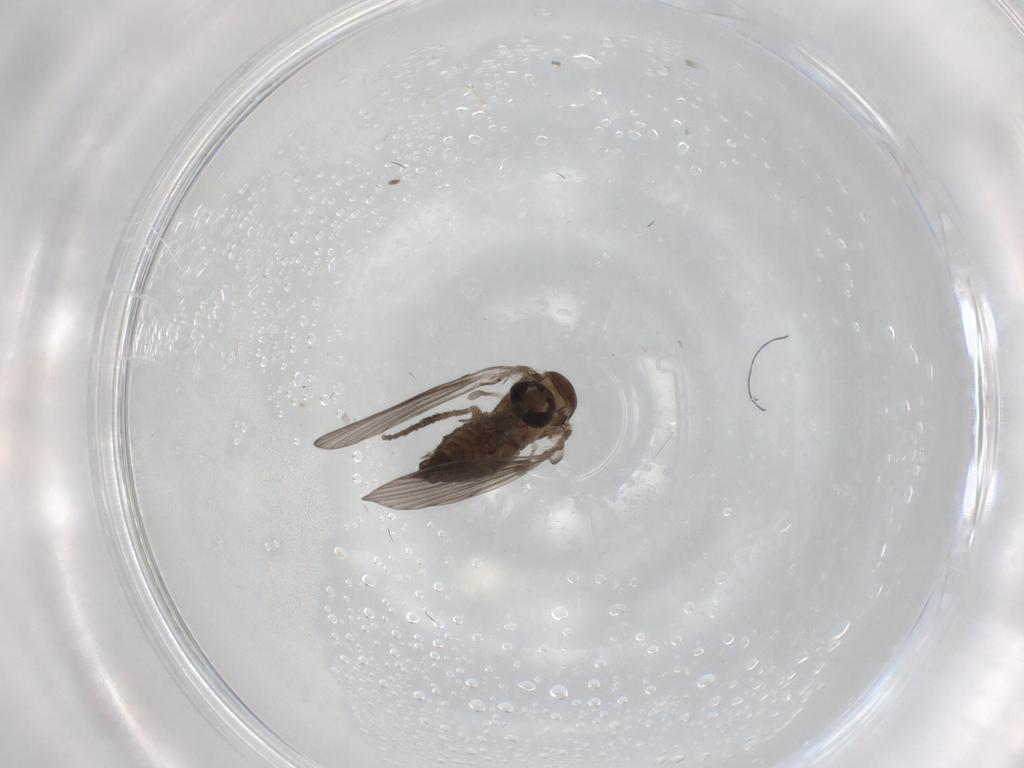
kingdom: Animalia
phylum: Arthropoda
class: Insecta
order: Diptera
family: Psychodidae
